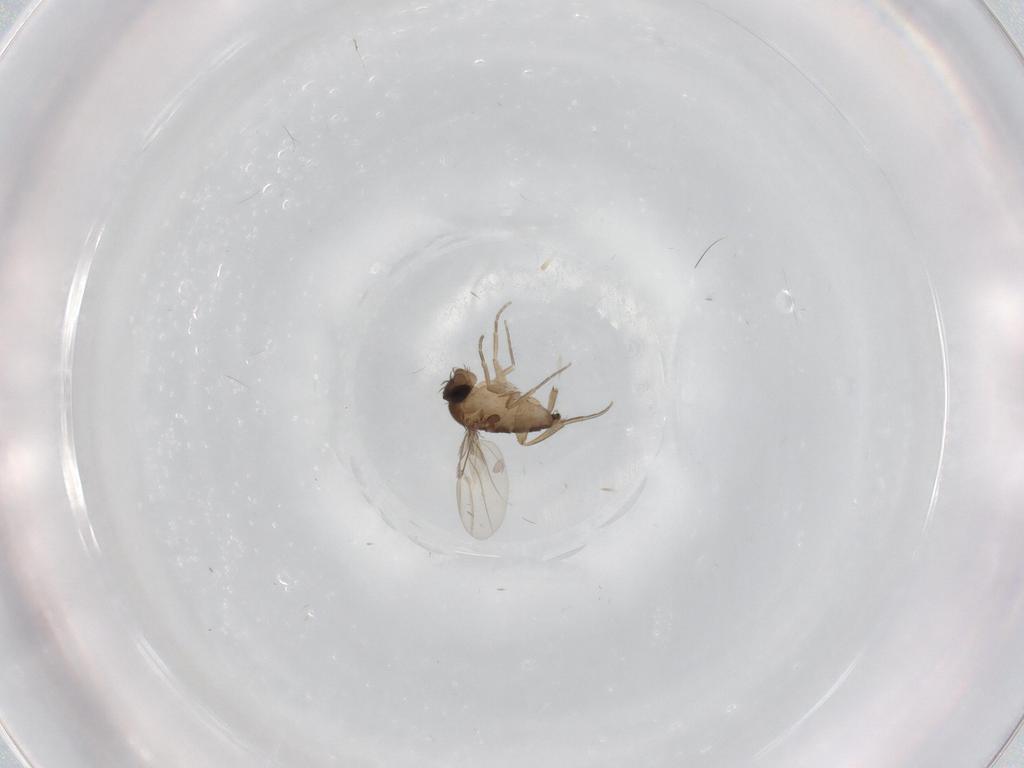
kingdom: Animalia
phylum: Arthropoda
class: Insecta
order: Diptera
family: Phoridae
